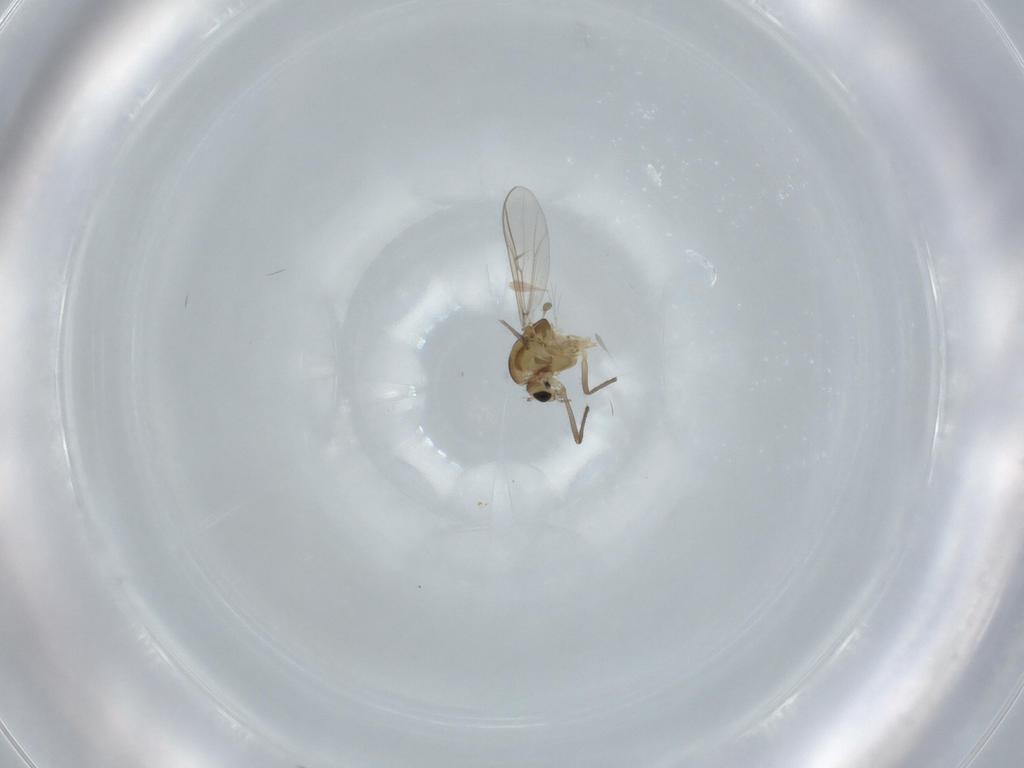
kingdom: Animalia
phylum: Arthropoda
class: Insecta
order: Diptera
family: Chironomidae
